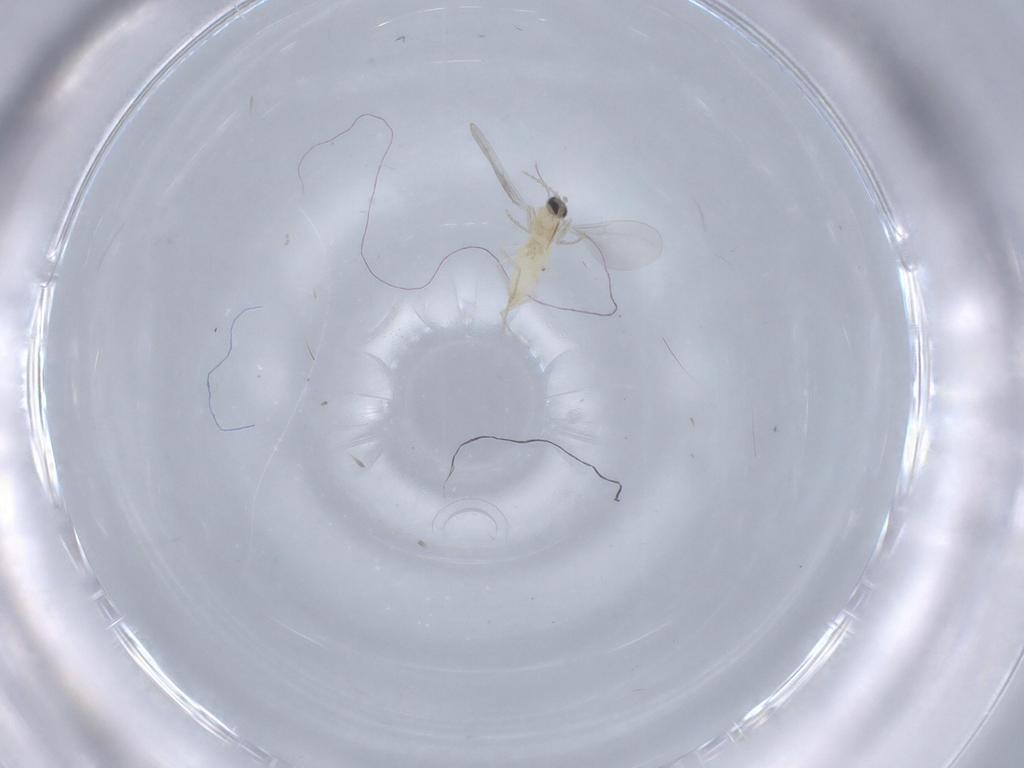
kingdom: Animalia
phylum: Arthropoda
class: Insecta
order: Diptera
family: Cecidomyiidae
